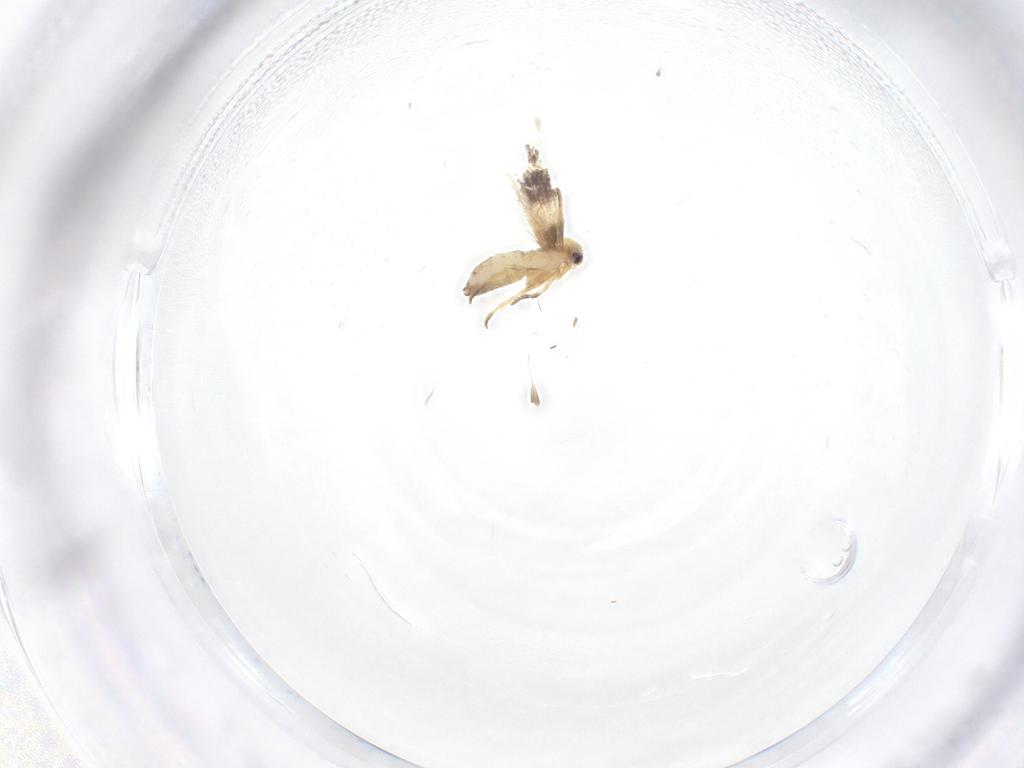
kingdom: Animalia
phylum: Arthropoda
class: Insecta
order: Lepidoptera
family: Nepticulidae
